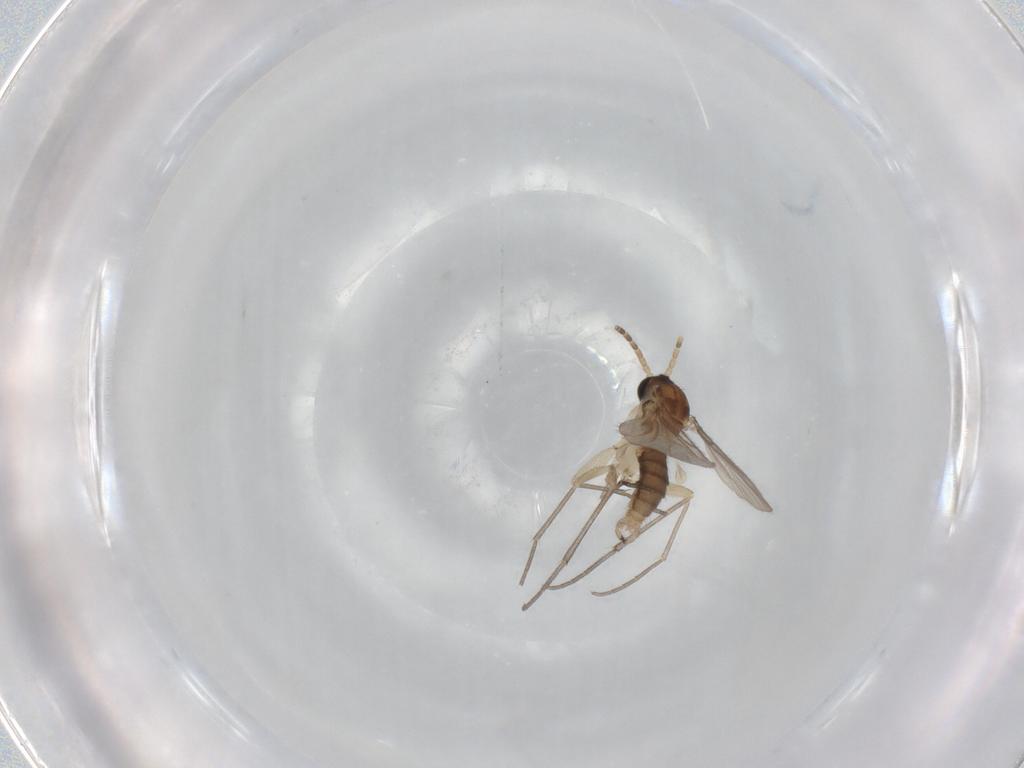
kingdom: Animalia
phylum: Arthropoda
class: Insecta
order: Diptera
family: Sciaridae
